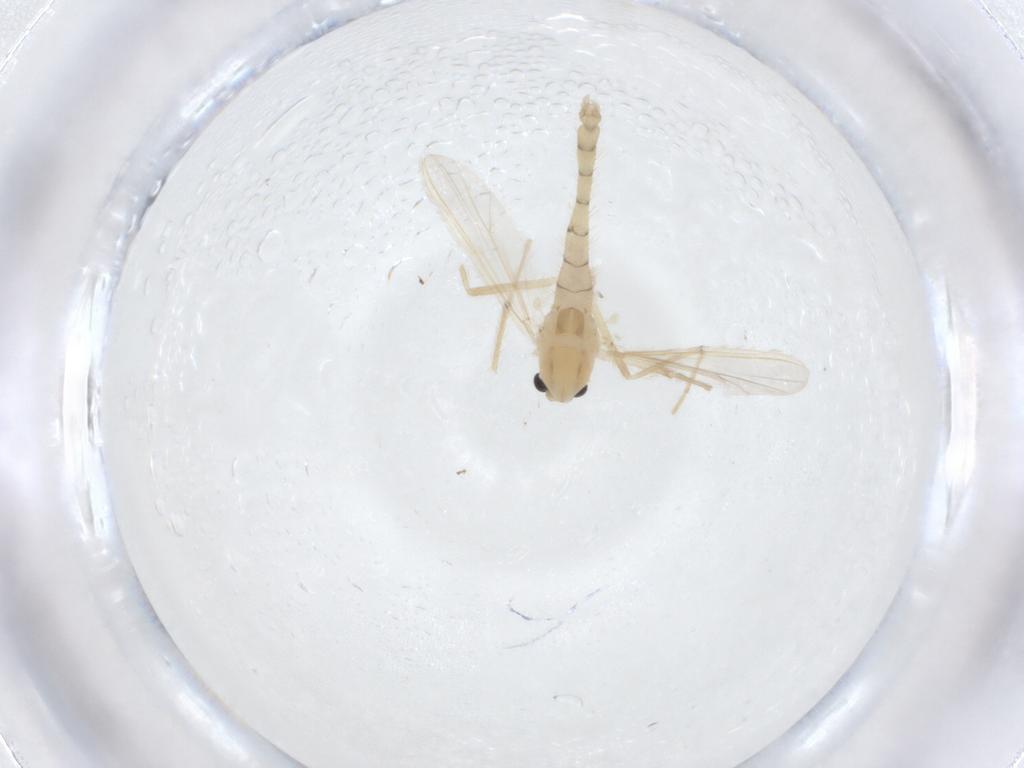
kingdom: Animalia
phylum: Arthropoda
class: Insecta
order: Diptera
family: Chironomidae
